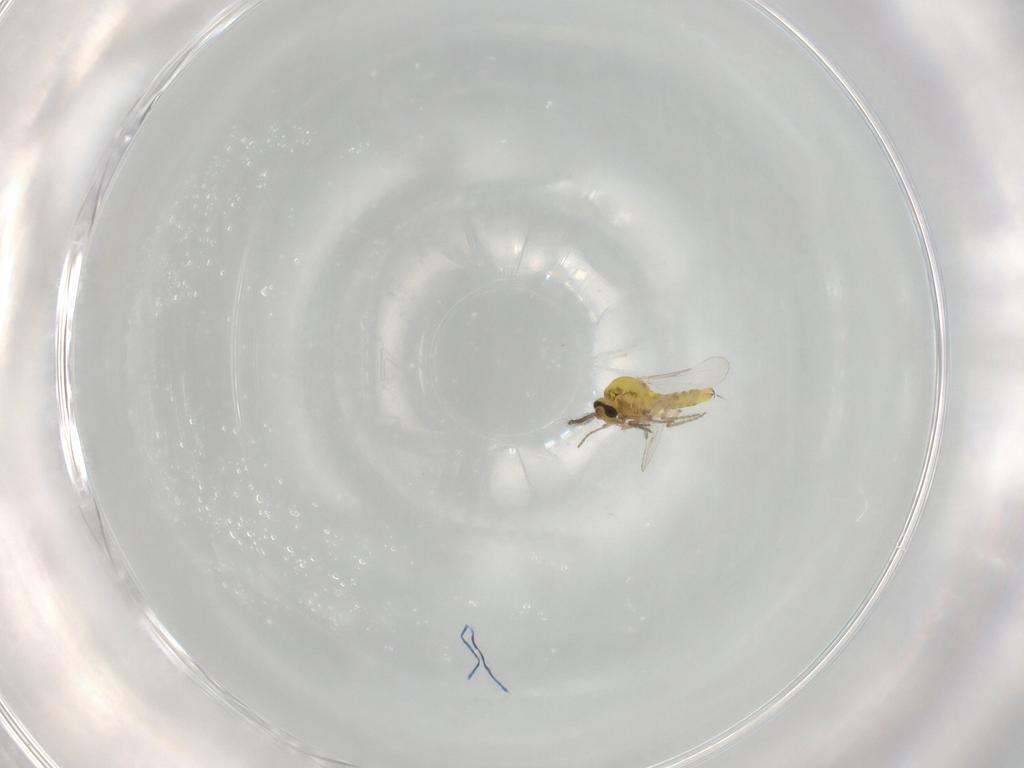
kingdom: Animalia
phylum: Arthropoda
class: Insecta
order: Diptera
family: Ceratopogonidae
